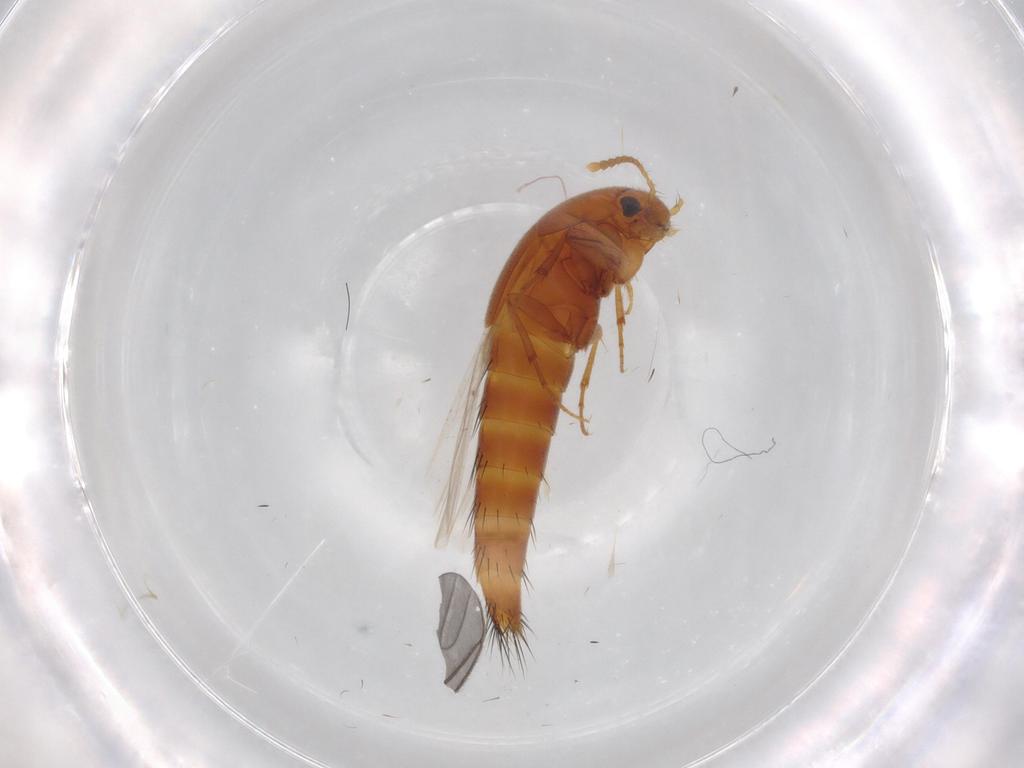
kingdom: Animalia
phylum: Arthropoda
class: Insecta
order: Coleoptera
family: Staphylinidae
